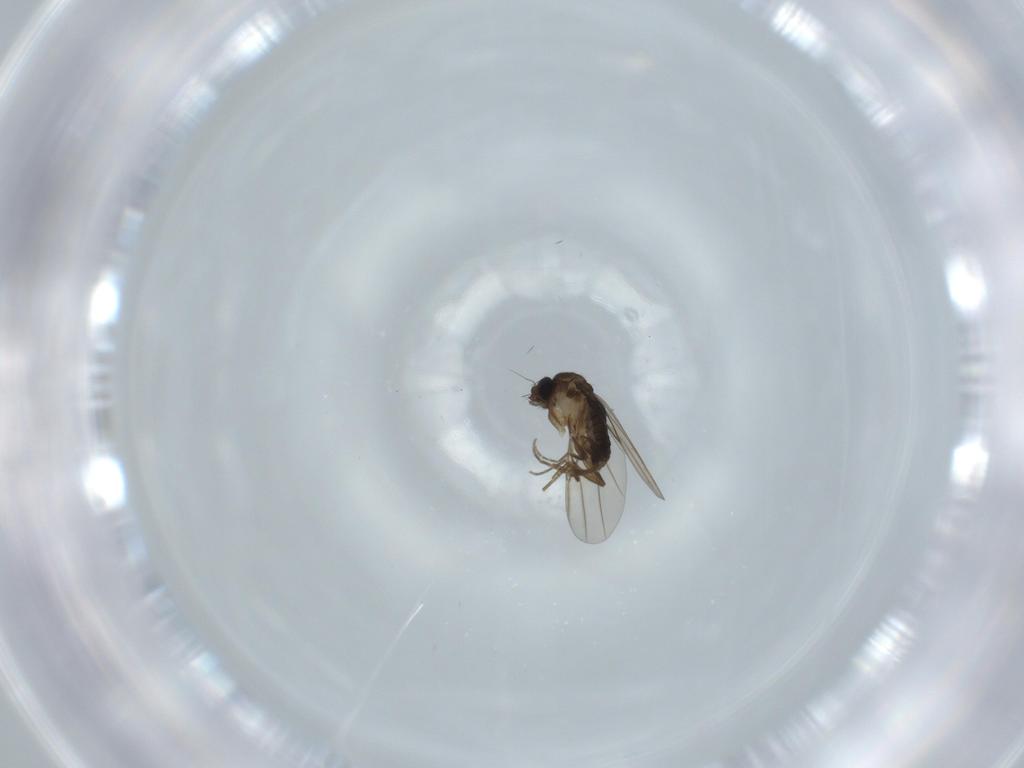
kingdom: Animalia
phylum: Arthropoda
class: Insecta
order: Diptera
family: Phoridae
